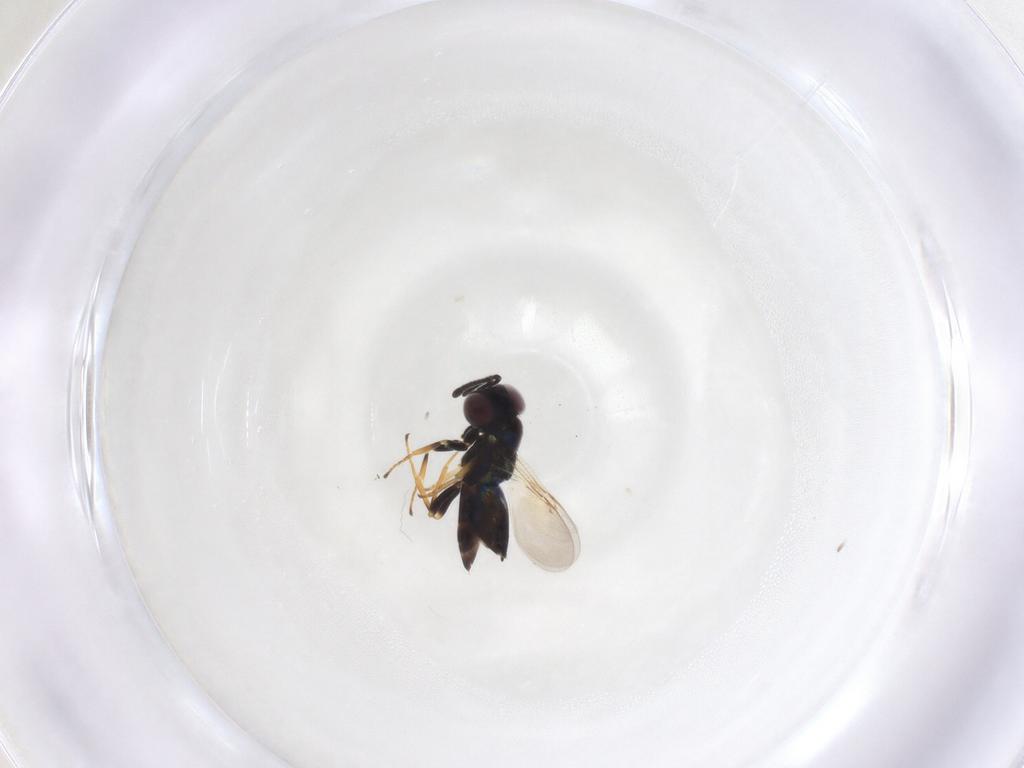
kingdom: Animalia
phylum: Arthropoda
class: Insecta
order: Hymenoptera
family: Encyrtidae
